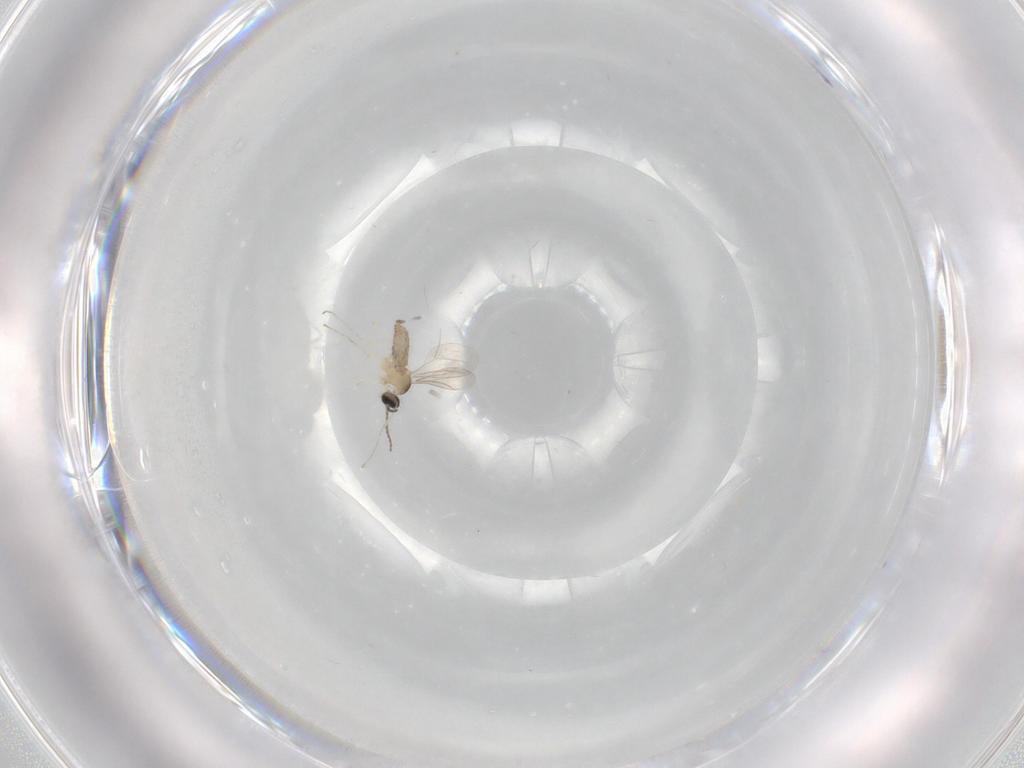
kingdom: Animalia
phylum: Arthropoda
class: Insecta
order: Diptera
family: Cecidomyiidae
